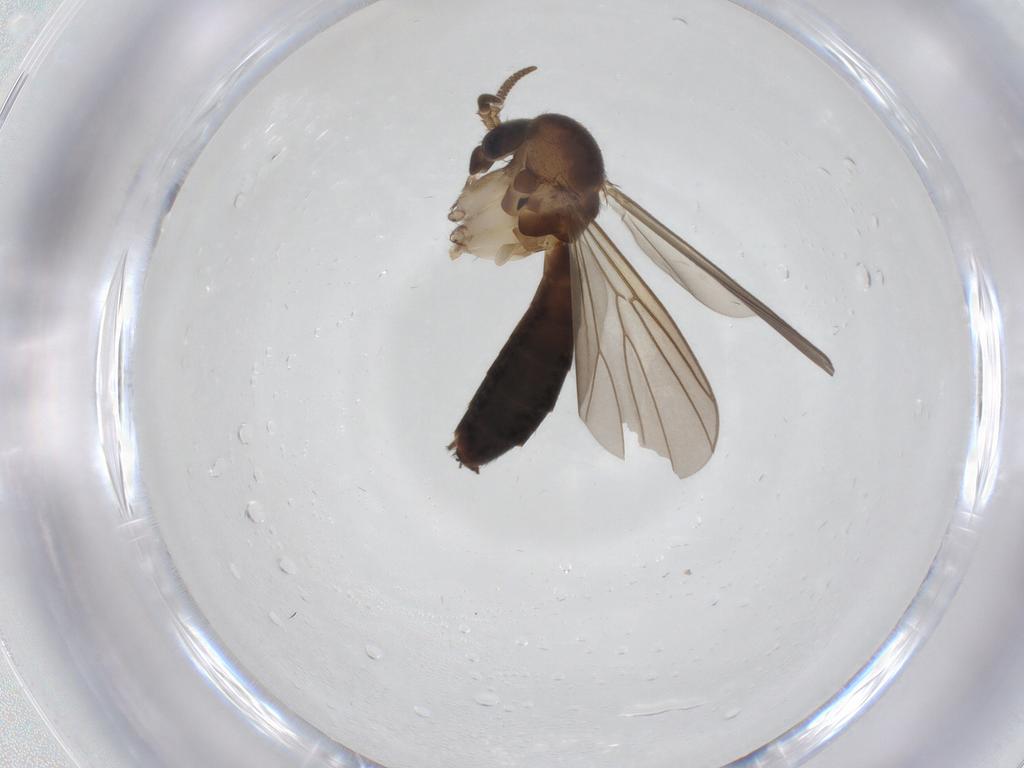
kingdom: Animalia
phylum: Arthropoda
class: Insecta
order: Diptera
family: Mycetophilidae
